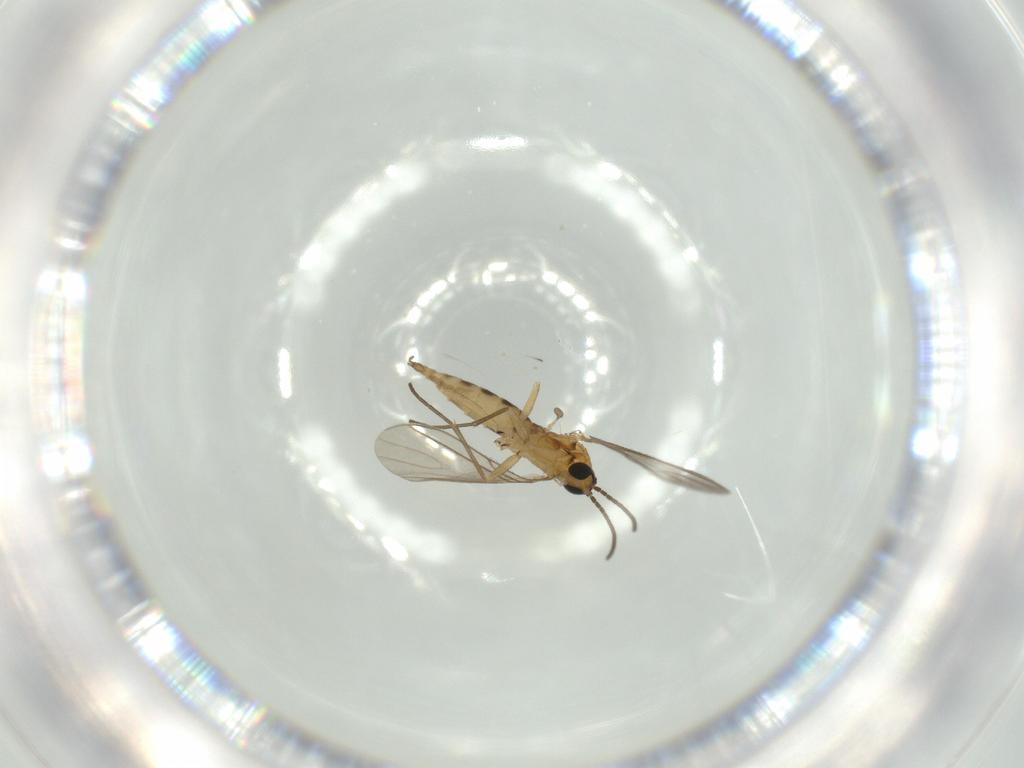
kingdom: Animalia
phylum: Arthropoda
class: Insecta
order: Diptera
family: Sciaridae
